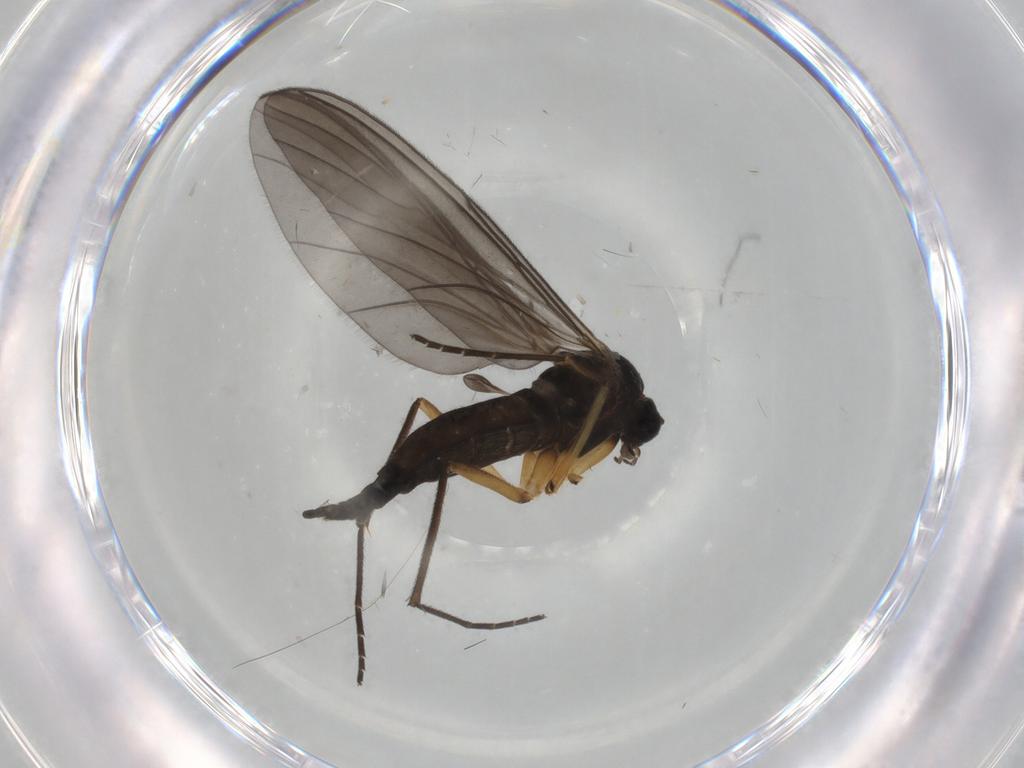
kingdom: Animalia
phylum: Arthropoda
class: Insecta
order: Diptera
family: Sciaridae
